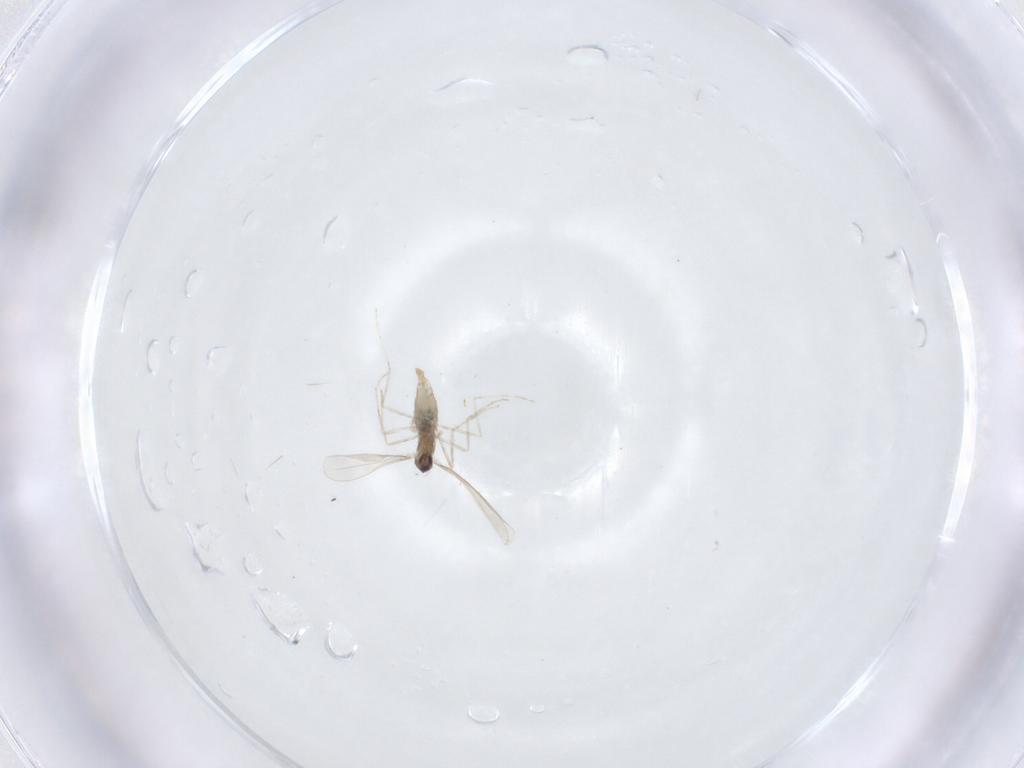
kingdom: Animalia
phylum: Arthropoda
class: Insecta
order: Diptera
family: Cecidomyiidae
